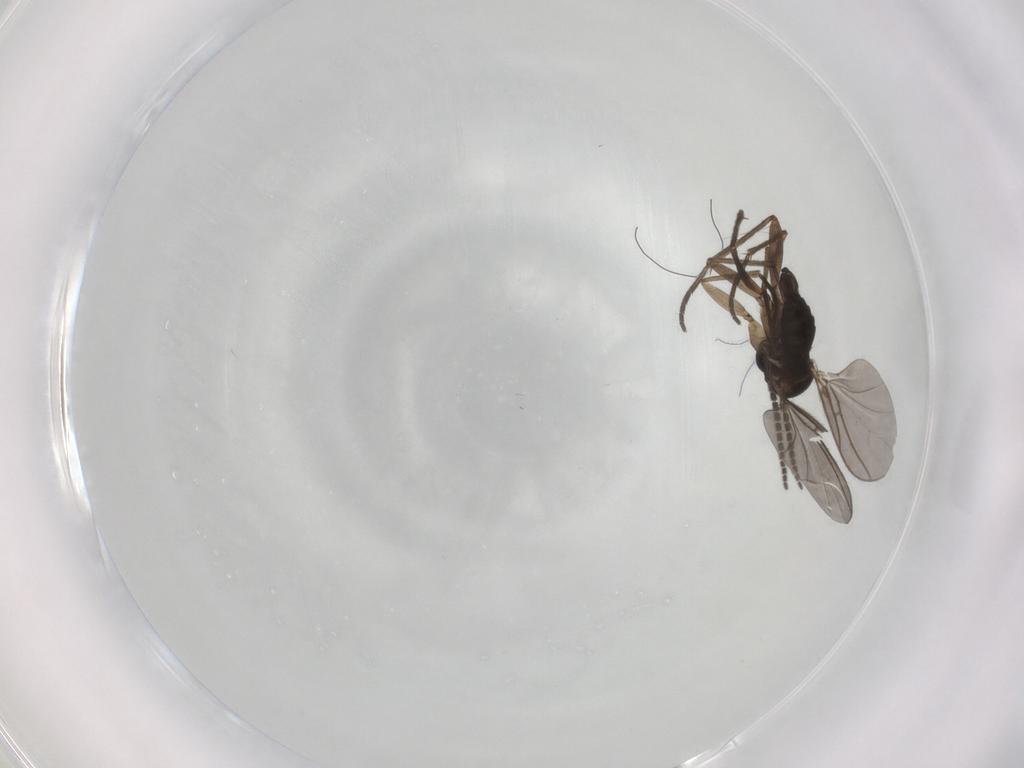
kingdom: Animalia
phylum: Arthropoda
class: Insecta
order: Diptera
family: Sciaridae
